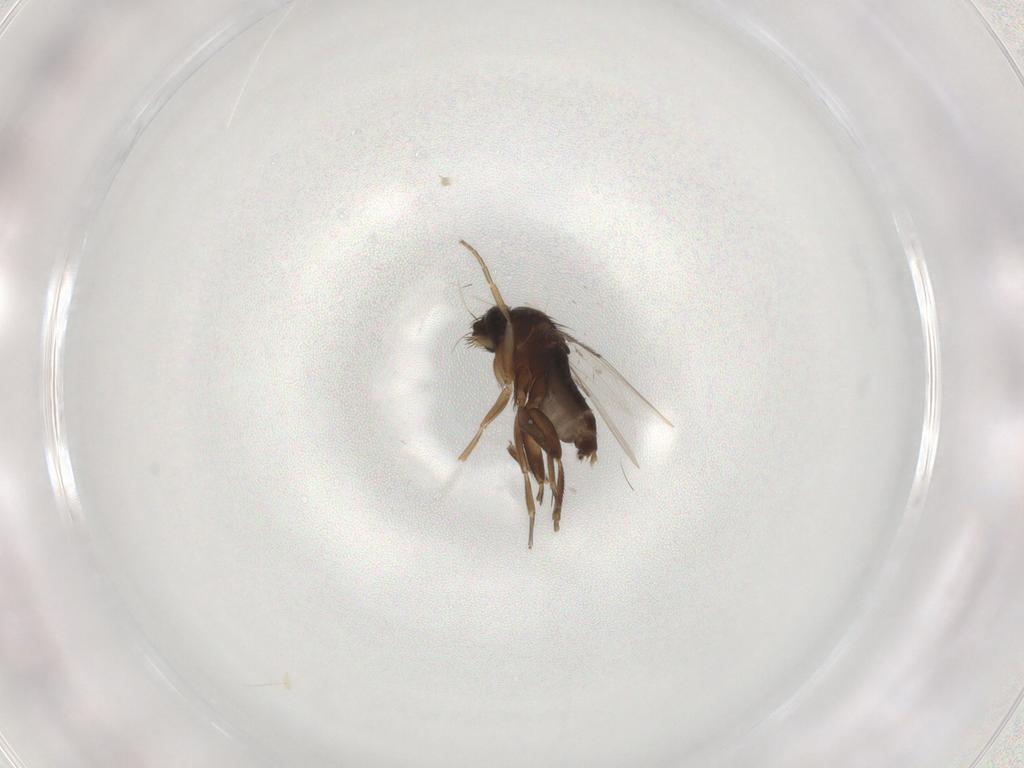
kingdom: Animalia
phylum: Arthropoda
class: Insecta
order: Diptera
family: Phoridae
